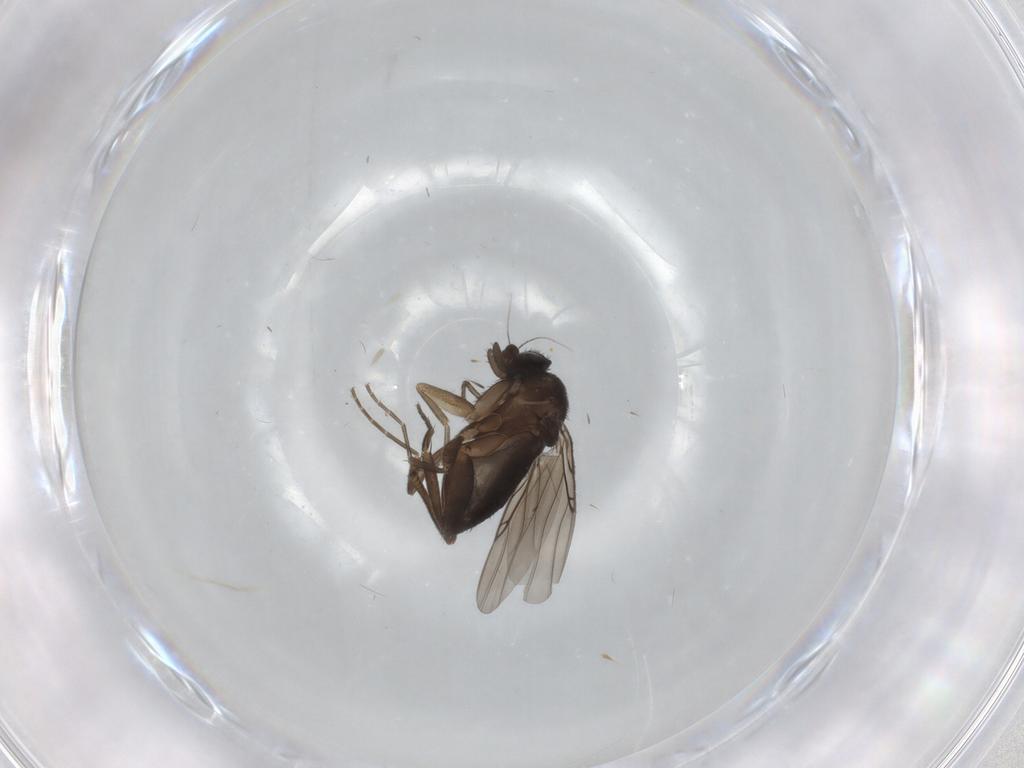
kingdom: Animalia
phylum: Arthropoda
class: Insecta
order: Diptera
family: Phoridae
